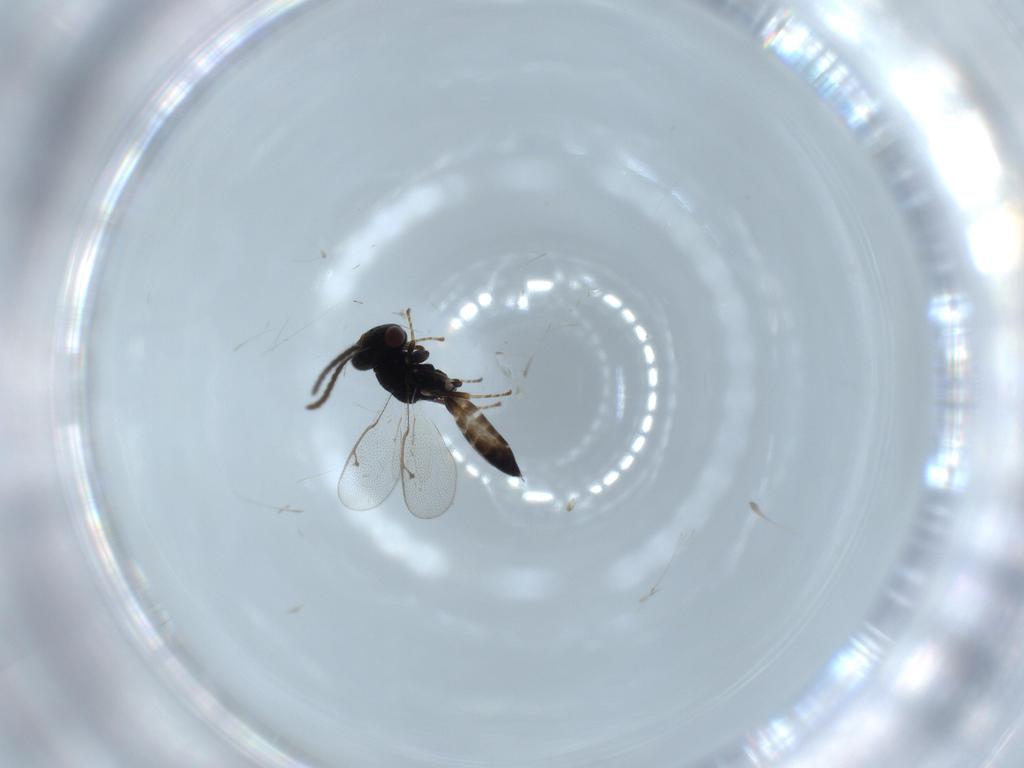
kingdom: Animalia
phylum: Arthropoda
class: Insecta
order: Hymenoptera
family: Pteromalidae
